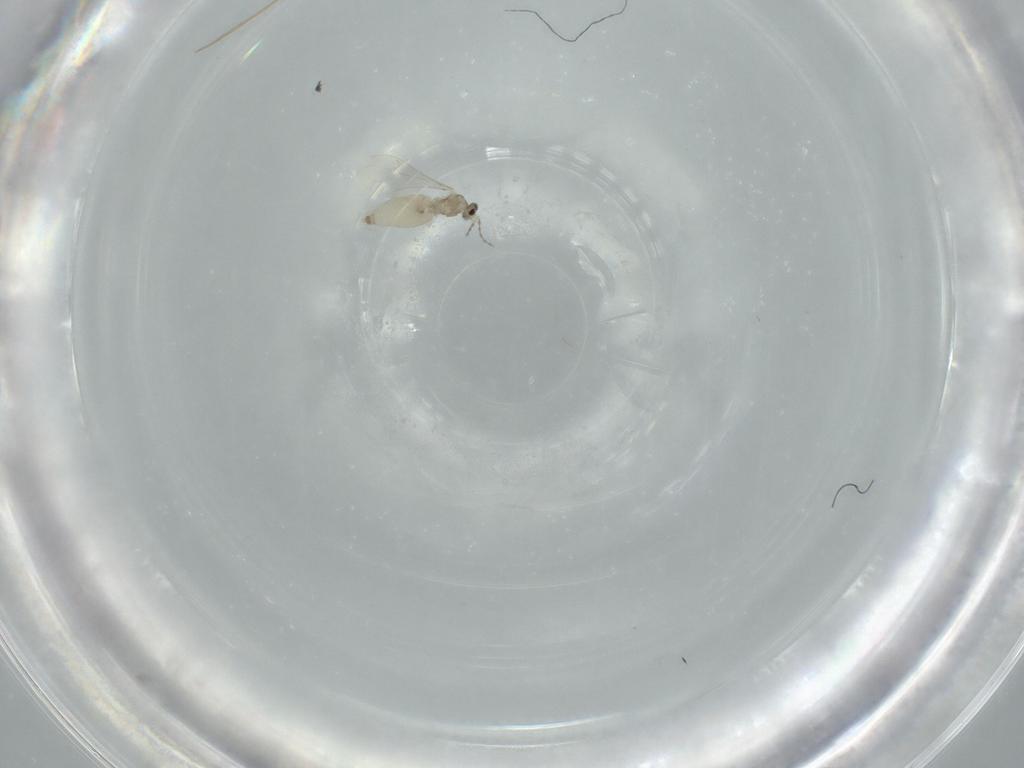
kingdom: Animalia
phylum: Arthropoda
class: Insecta
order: Diptera
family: Cecidomyiidae
